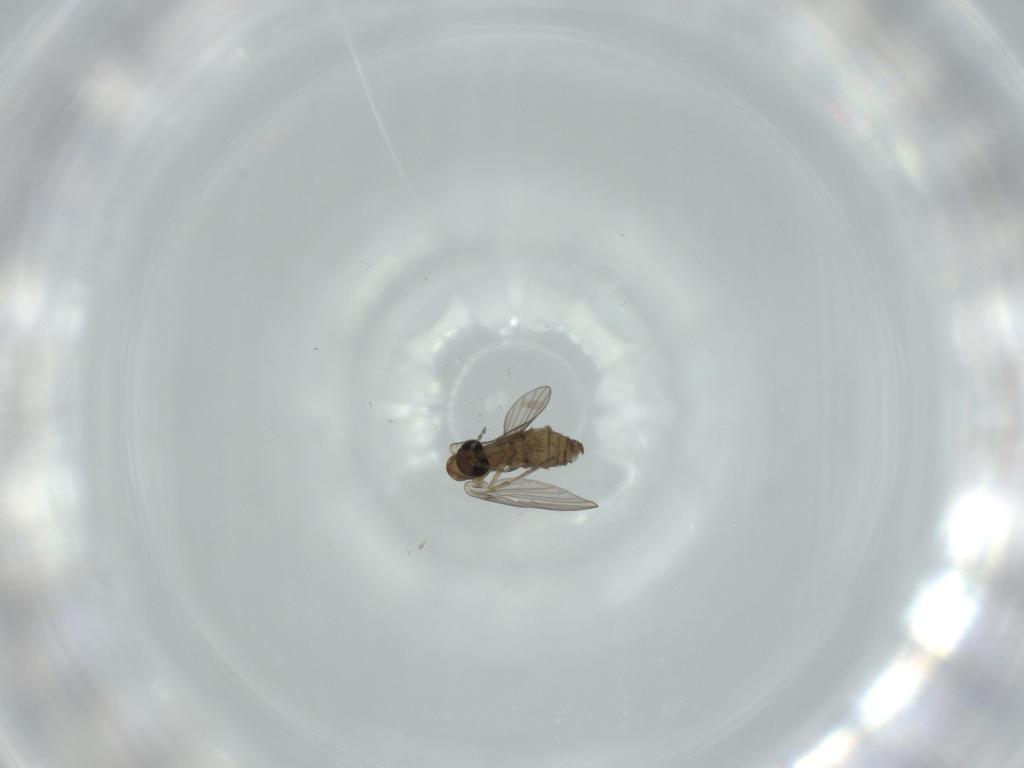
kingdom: Animalia
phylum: Arthropoda
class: Insecta
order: Diptera
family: Psychodidae
